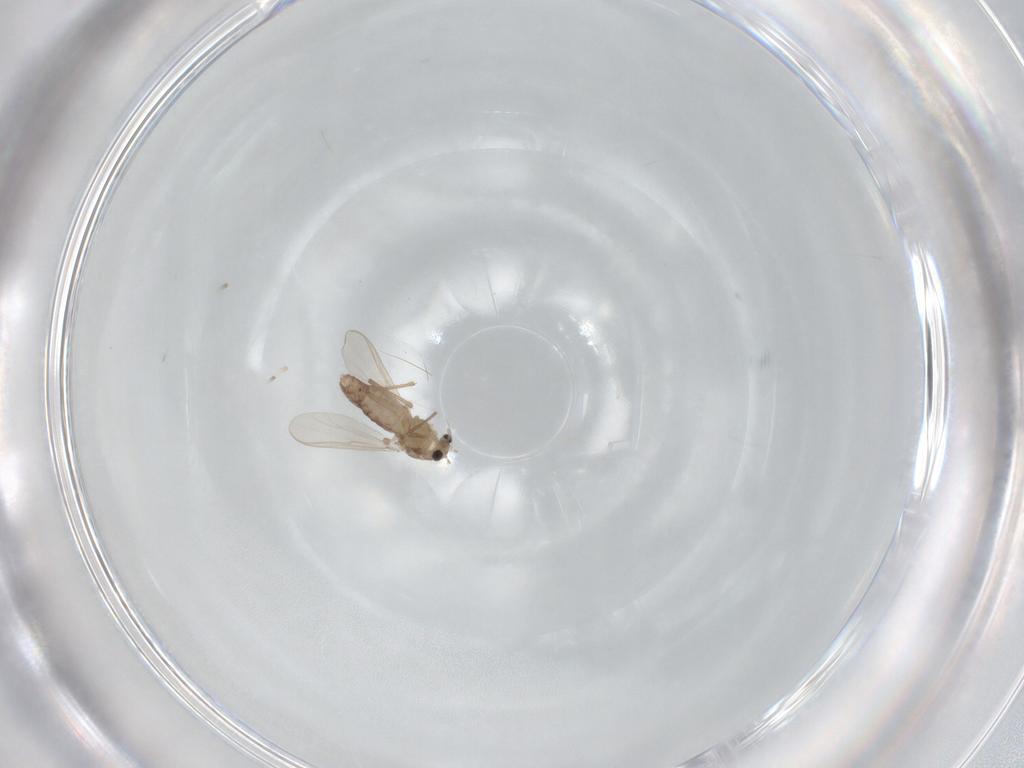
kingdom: Animalia
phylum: Arthropoda
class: Insecta
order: Diptera
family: Chironomidae
